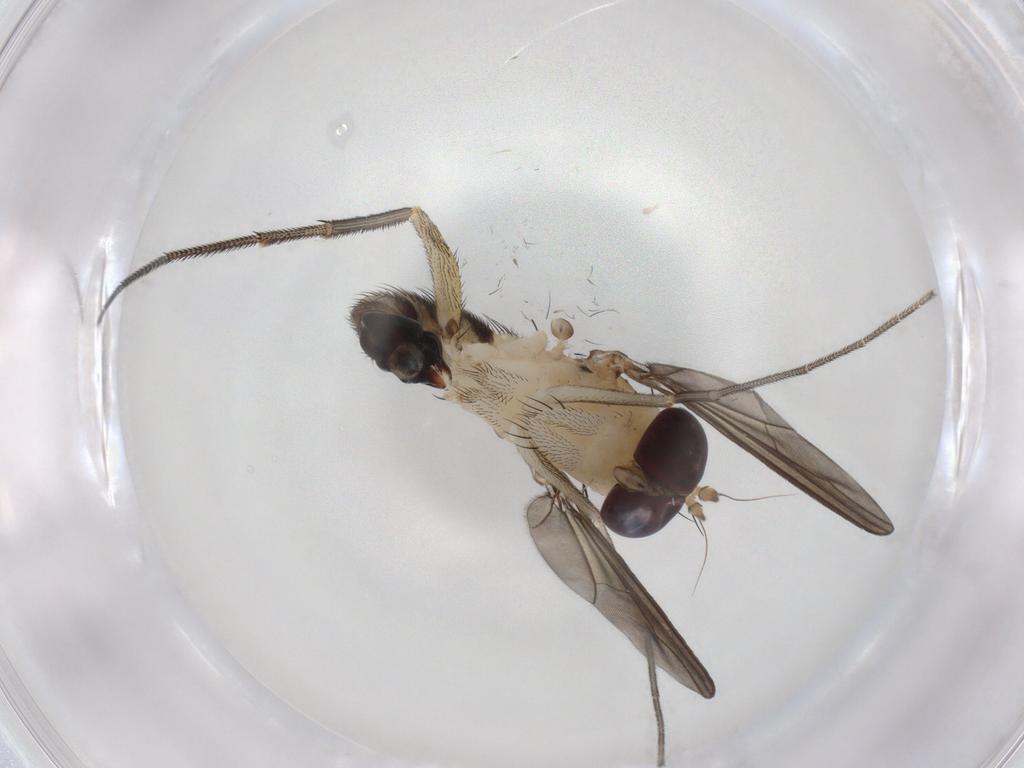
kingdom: Animalia
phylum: Arthropoda
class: Insecta
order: Diptera
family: Dolichopodidae
